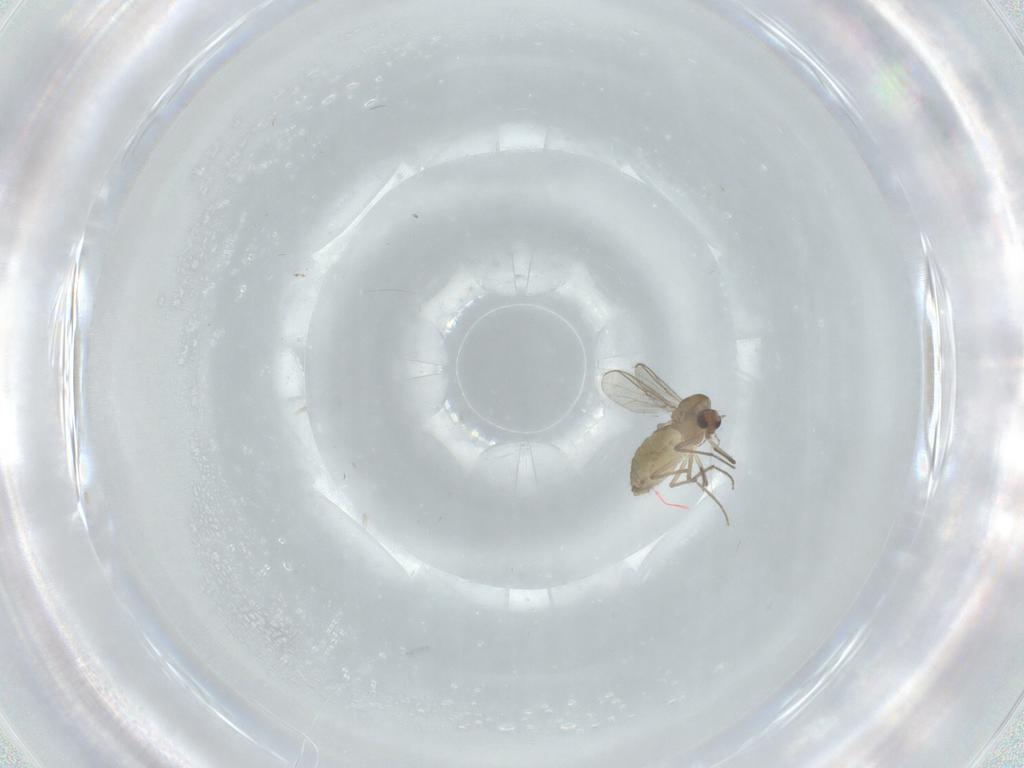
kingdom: Animalia
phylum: Arthropoda
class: Insecta
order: Diptera
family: Chironomidae
